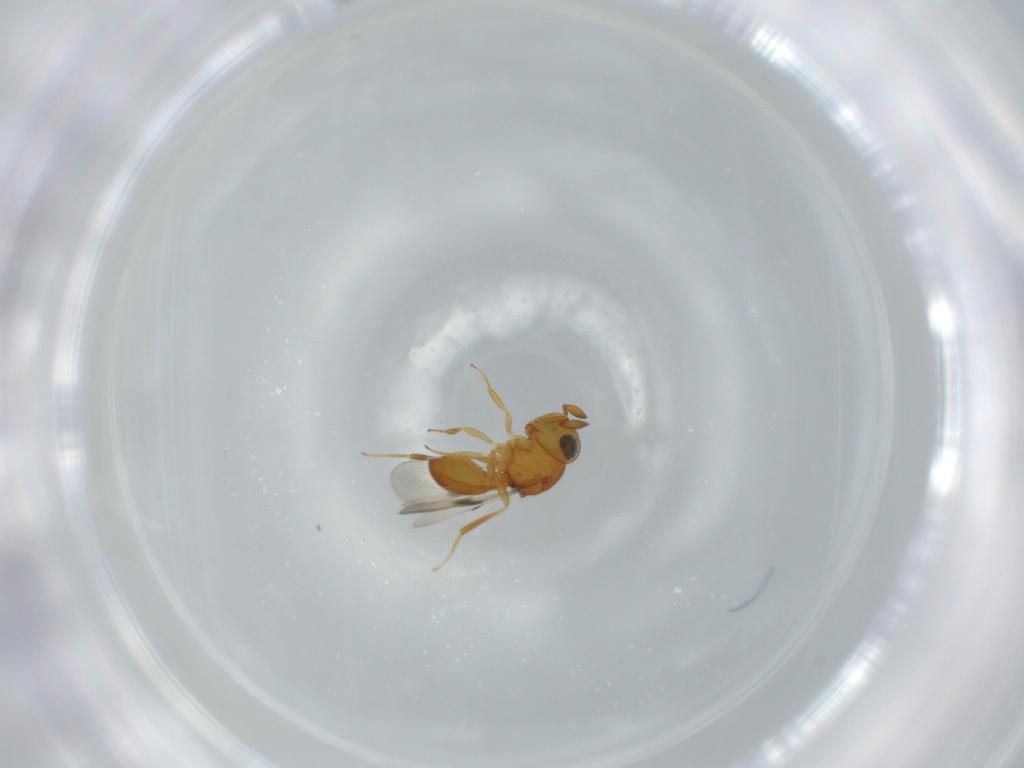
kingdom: Animalia
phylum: Arthropoda
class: Insecta
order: Hymenoptera
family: Scelionidae
